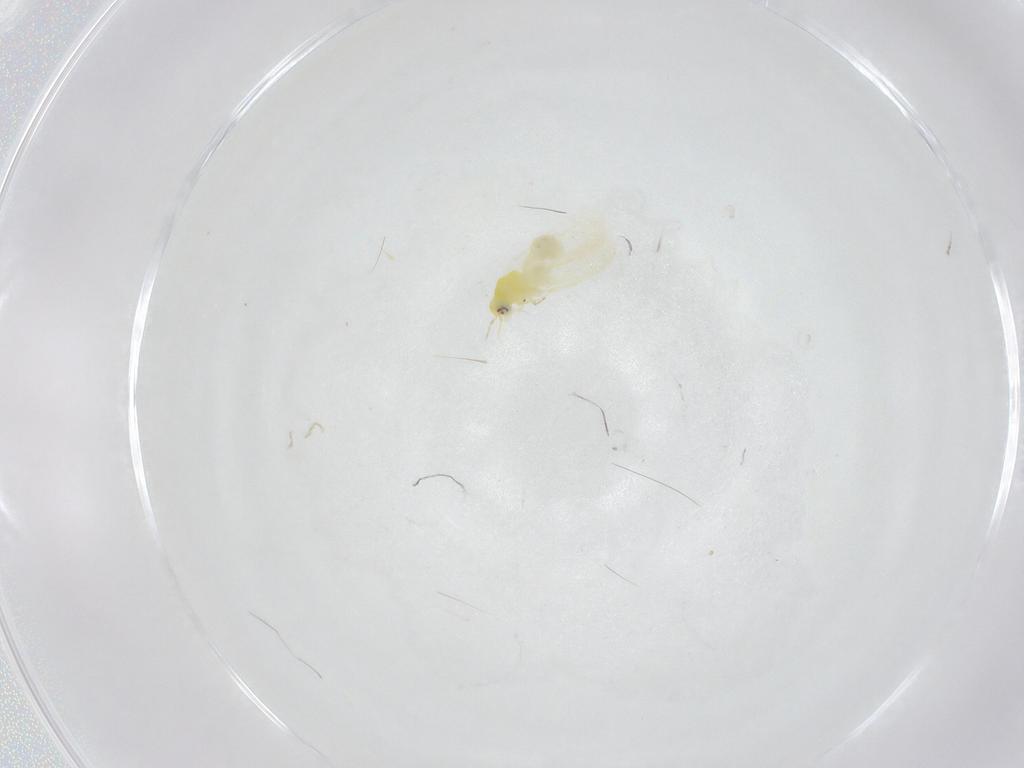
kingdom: Animalia
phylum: Arthropoda
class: Insecta
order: Hemiptera
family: Aleyrodidae
